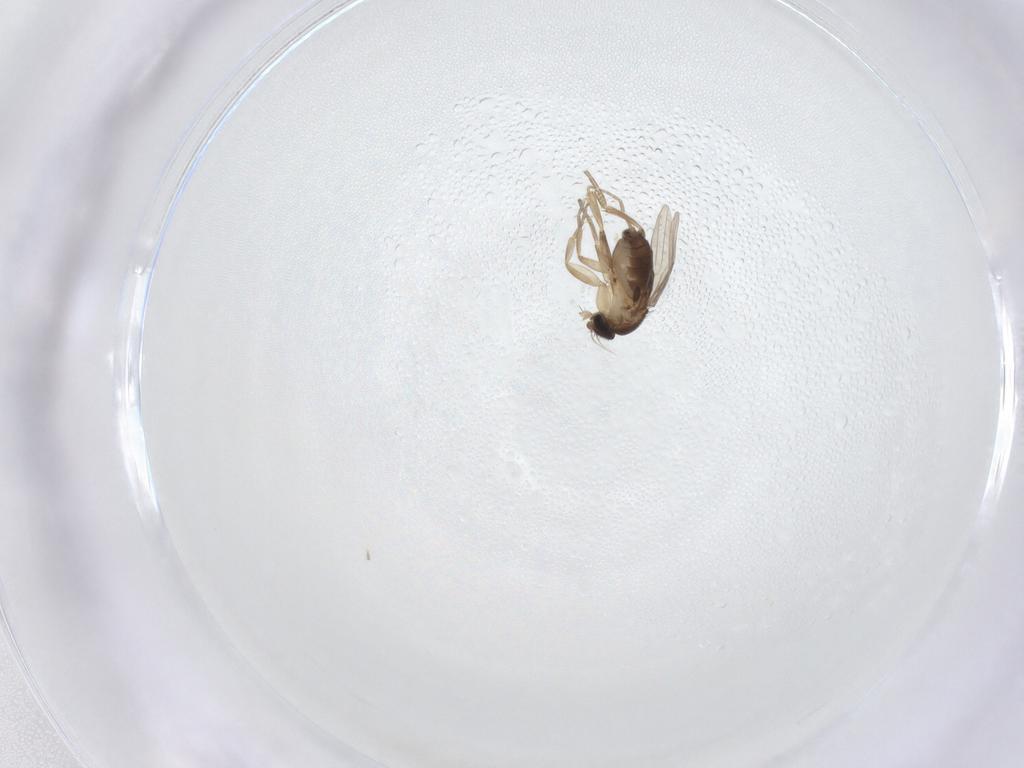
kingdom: Animalia
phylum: Arthropoda
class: Insecta
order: Diptera
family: Phoridae
